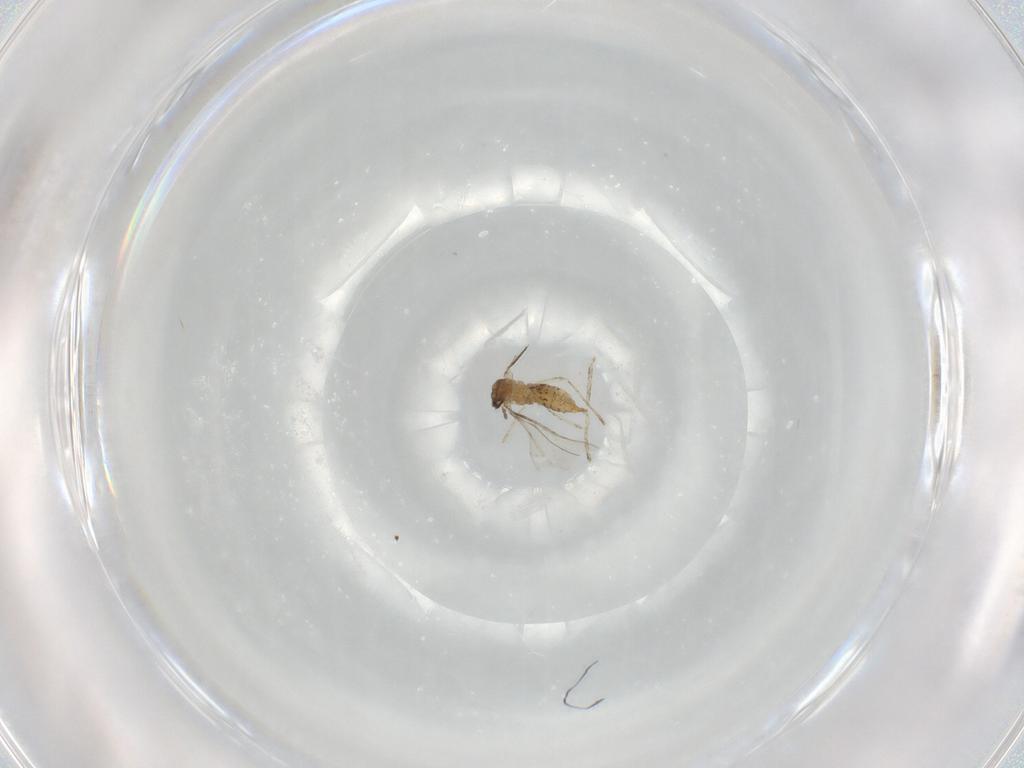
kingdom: Animalia
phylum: Arthropoda
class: Insecta
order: Diptera
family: Cecidomyiidae
